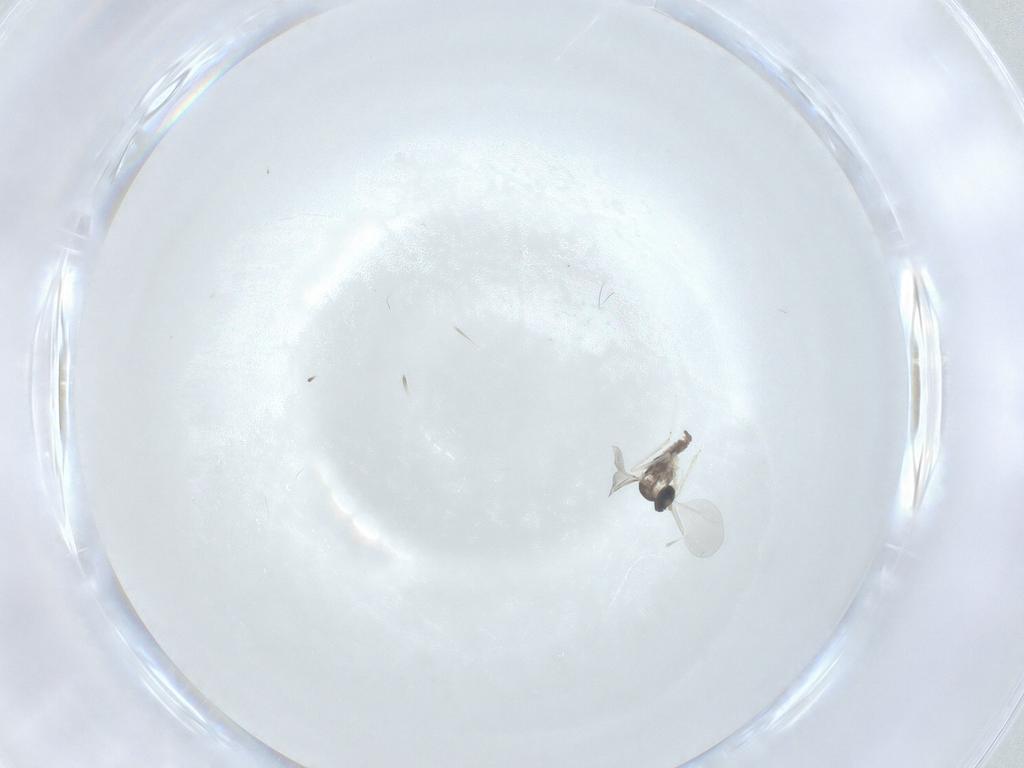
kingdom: Animalia
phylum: Arthropoda
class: Insecta
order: Diptera
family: Cecidomyiidae
